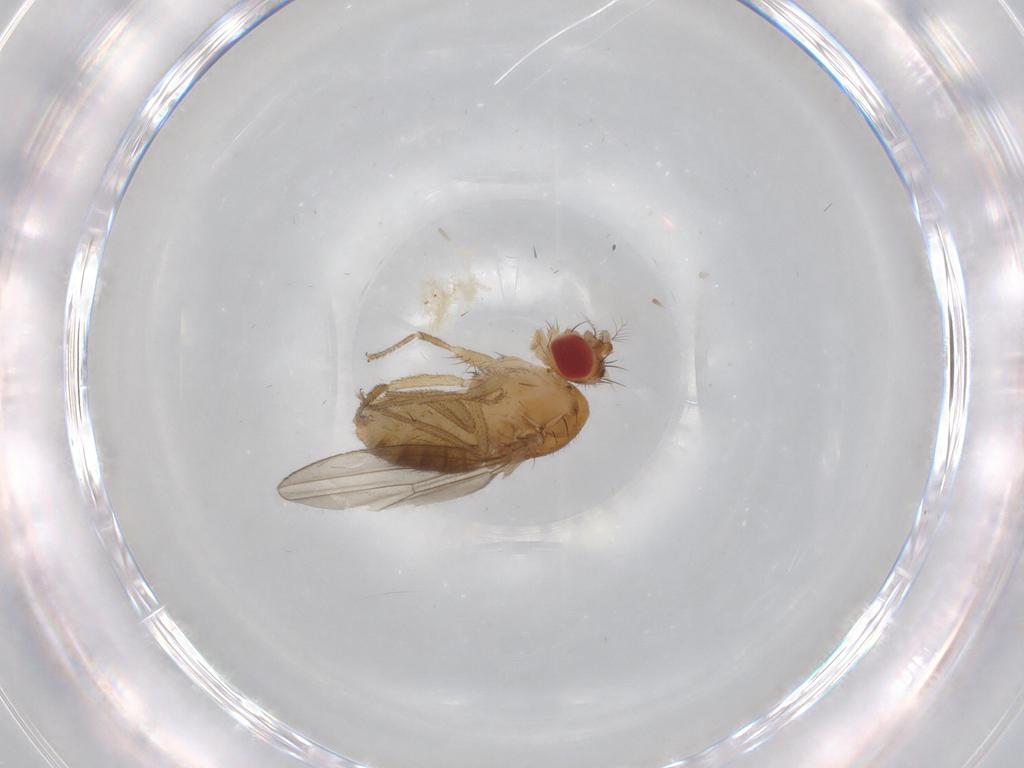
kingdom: Animalia
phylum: Arthropoda
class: Insecta
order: Diptera
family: Drosophilidae
